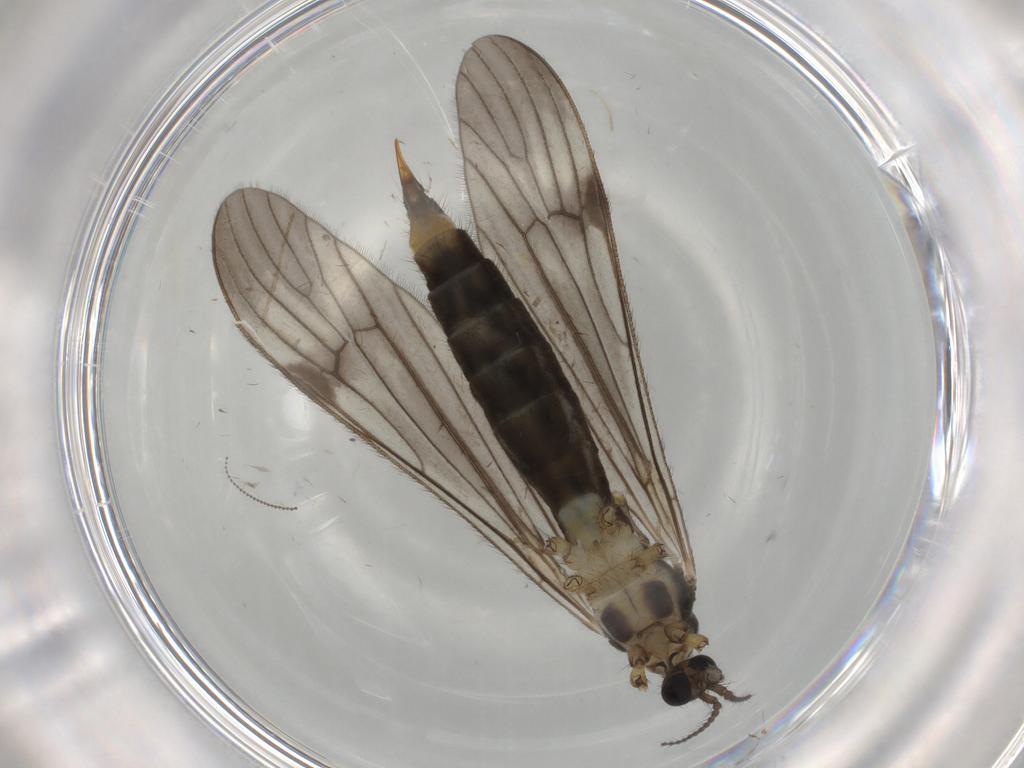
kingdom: Animalia
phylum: Arthropoda
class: Insecta
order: Diptera
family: Limoniidae
